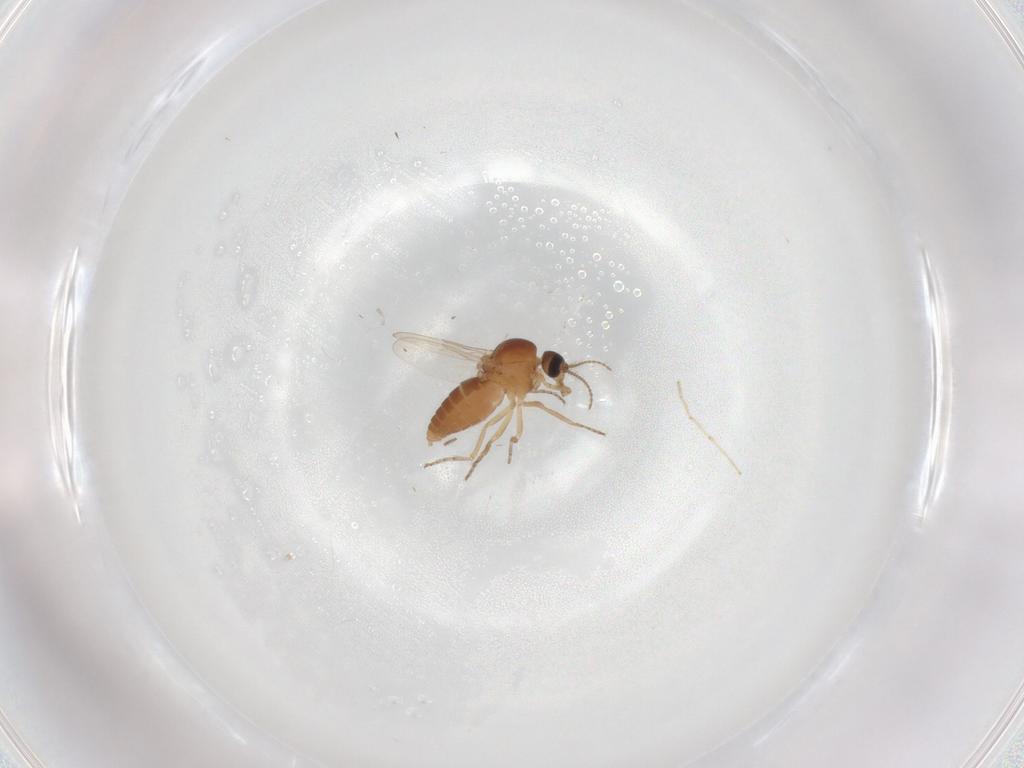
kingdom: Animalia
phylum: Arthropoda
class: Insecta
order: Diptera
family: Ceratopogonidae
